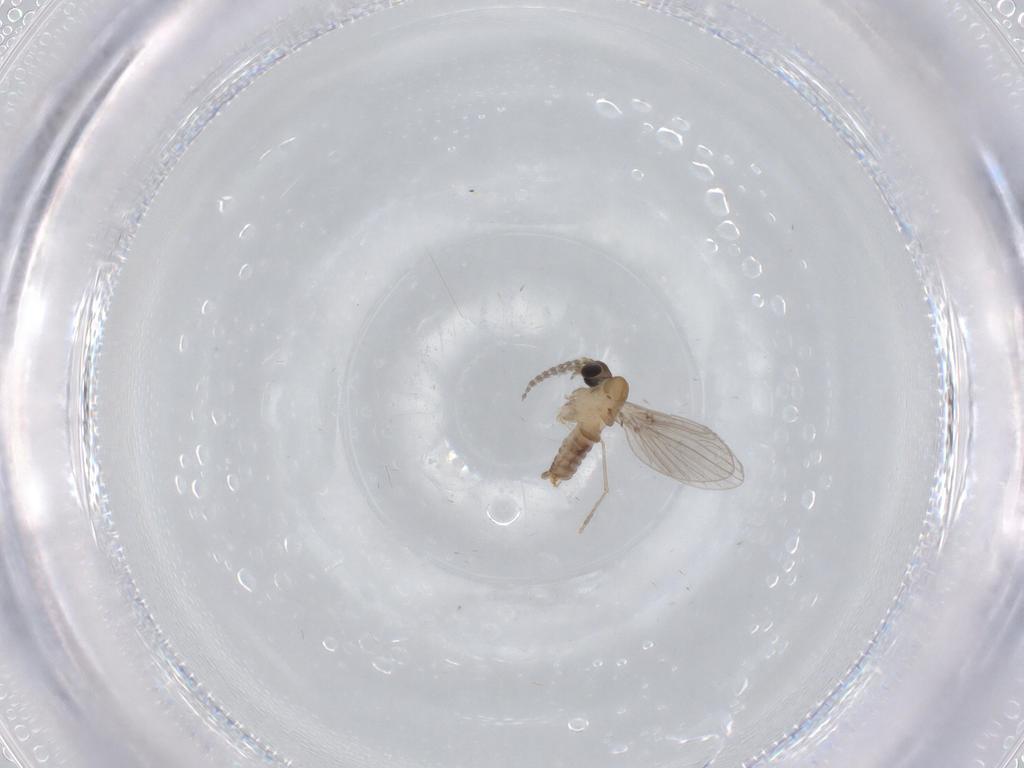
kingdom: Animalia
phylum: Arthropoda
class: Insecta
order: Diptera
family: Phoridae
